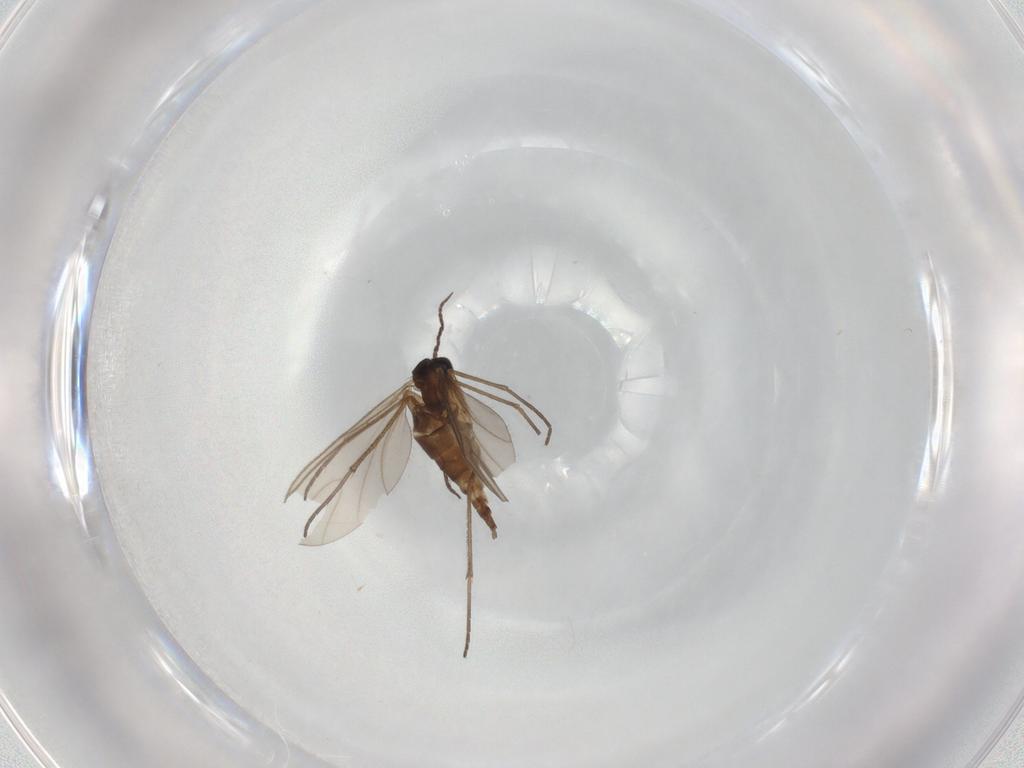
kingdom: Animalia
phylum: Arthropoda
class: Insecta
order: Diptera
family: Sciaridae
